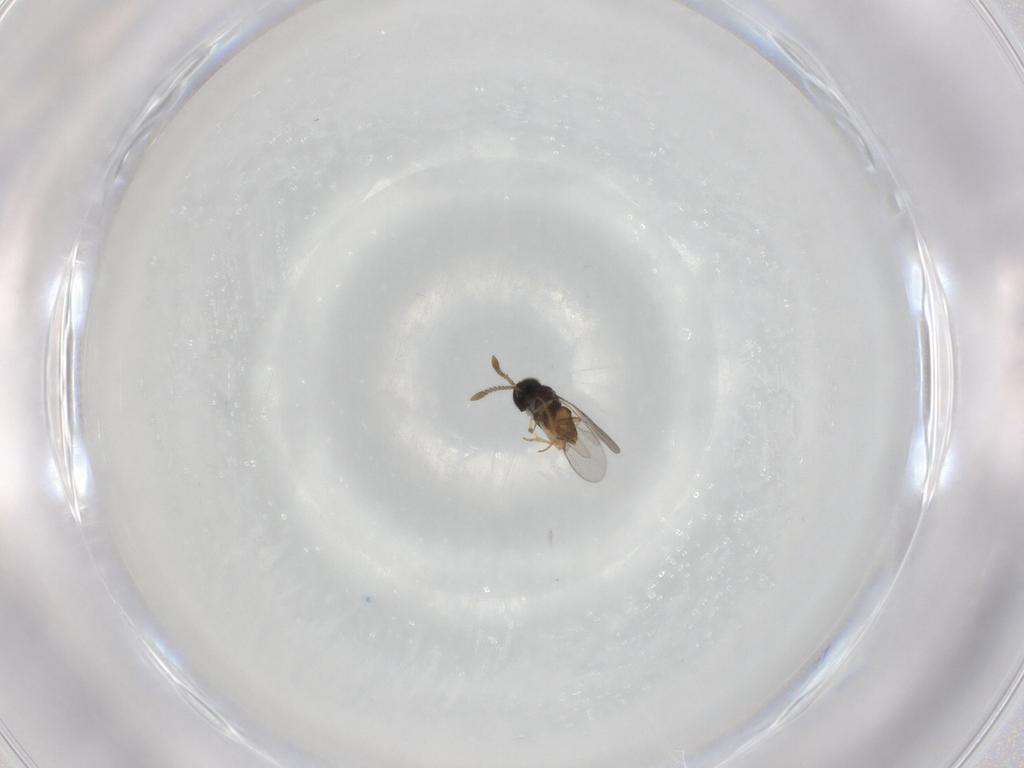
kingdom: Animalia
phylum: Arthropoda
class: Insecta
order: Hymenoptera
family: Encyrtidae
